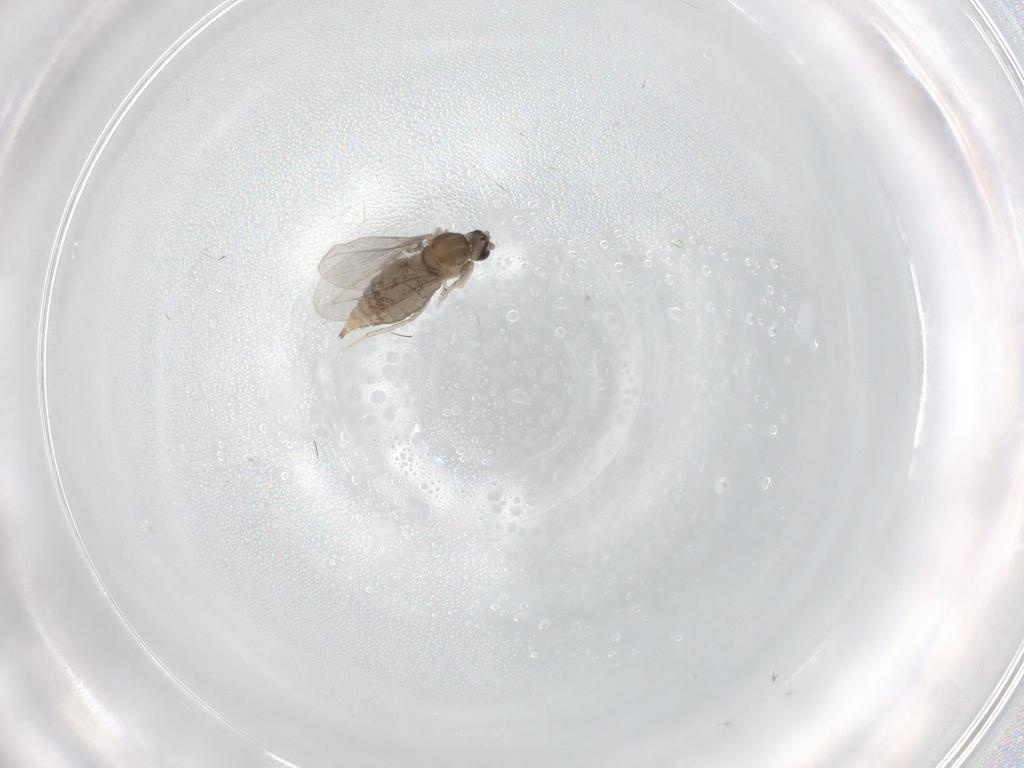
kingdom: Animalia
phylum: Arthropoda
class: Insecta
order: Diptera
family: Cecidomyiidae
